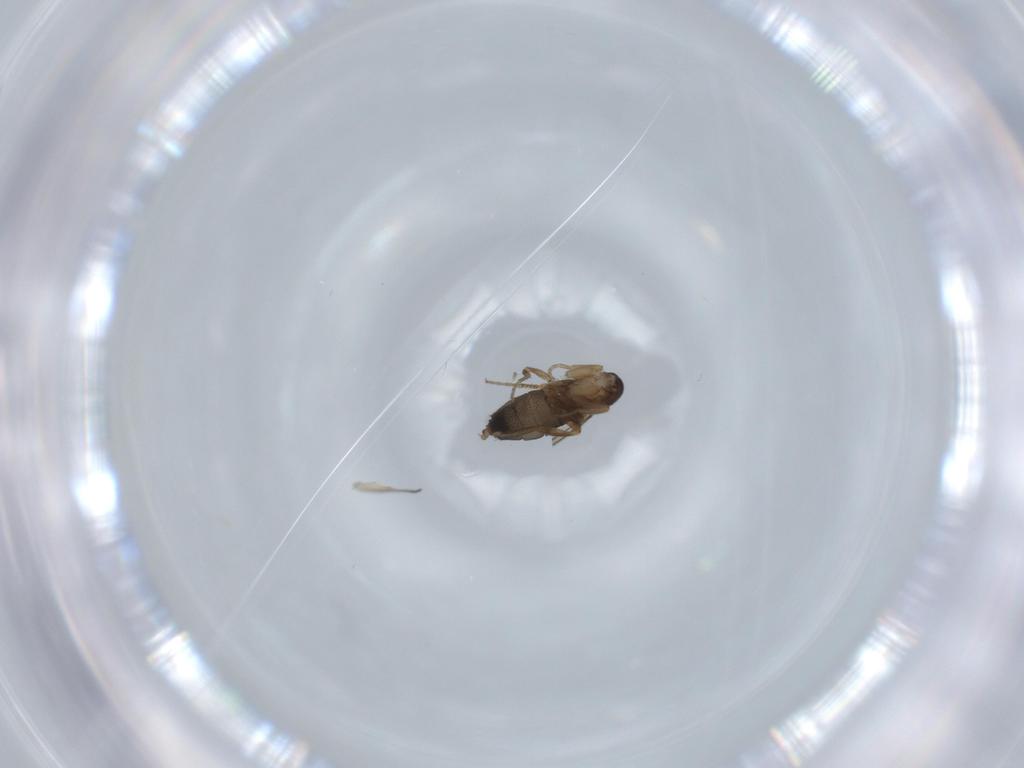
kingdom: Animalia
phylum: Arthropoda
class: Insecta
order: Diptera
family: Phoridae
